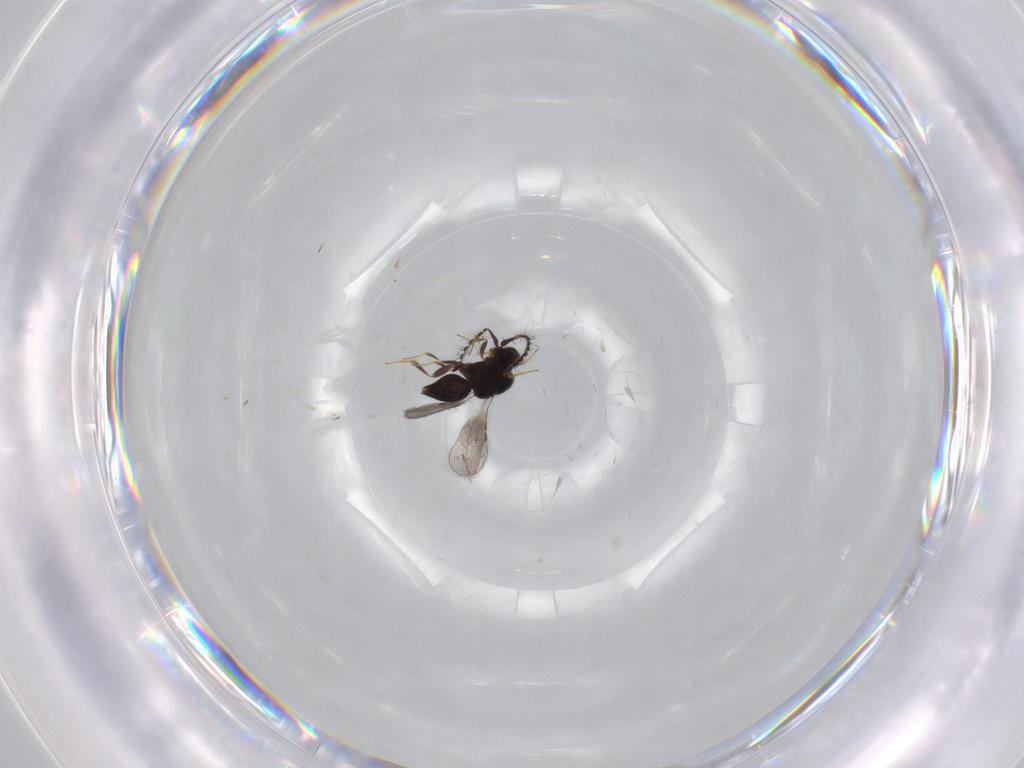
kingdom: Animalia
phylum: Arthropoda
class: Insecta
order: Hymenoptera
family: Bethylidae
